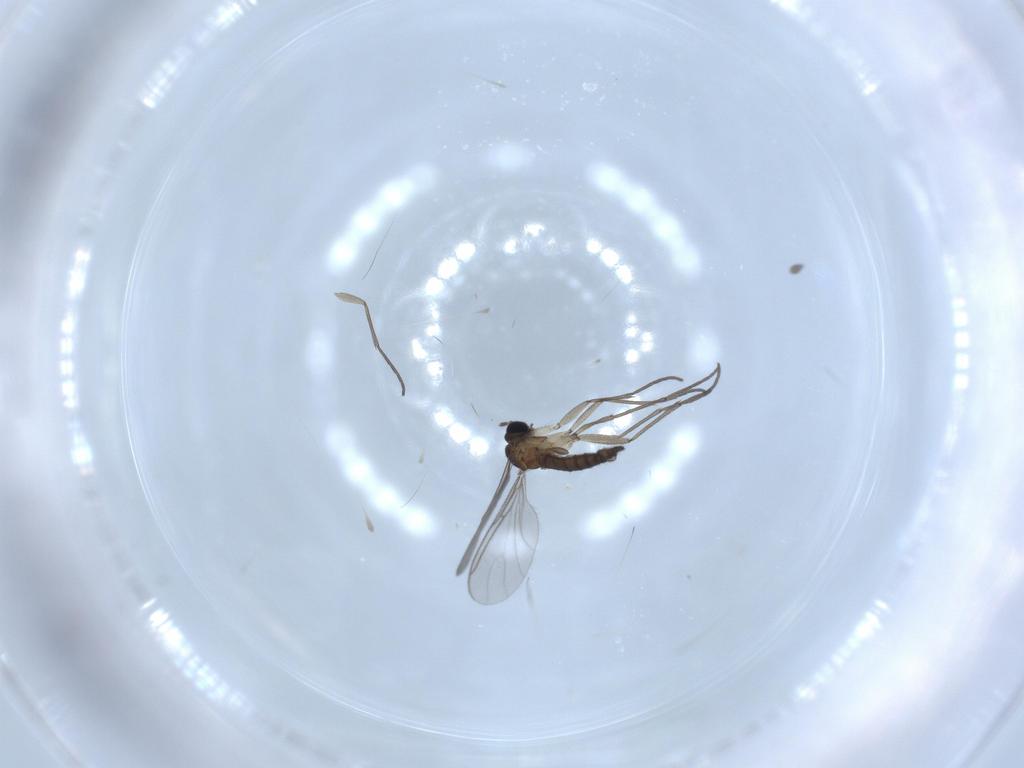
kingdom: Animalia
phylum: Arthropoda
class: Insecta
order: Diptera
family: Sciaridae
